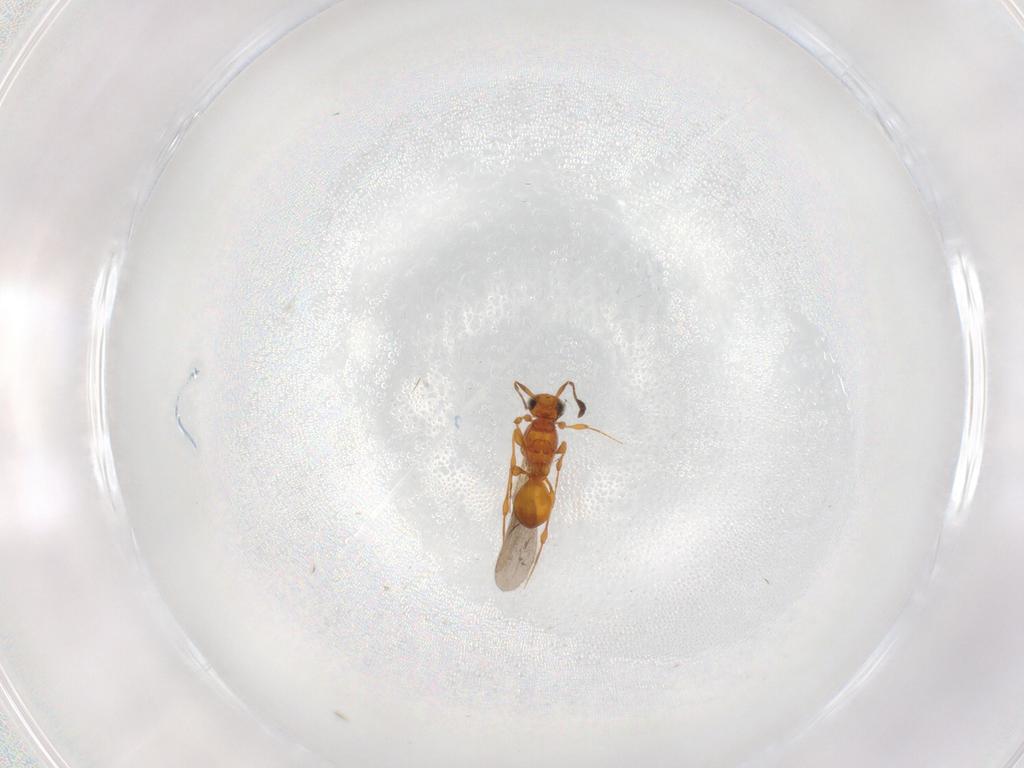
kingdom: Animalia
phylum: Arthropoda
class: Insecta
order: Hymenoptera
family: Platygastridae
